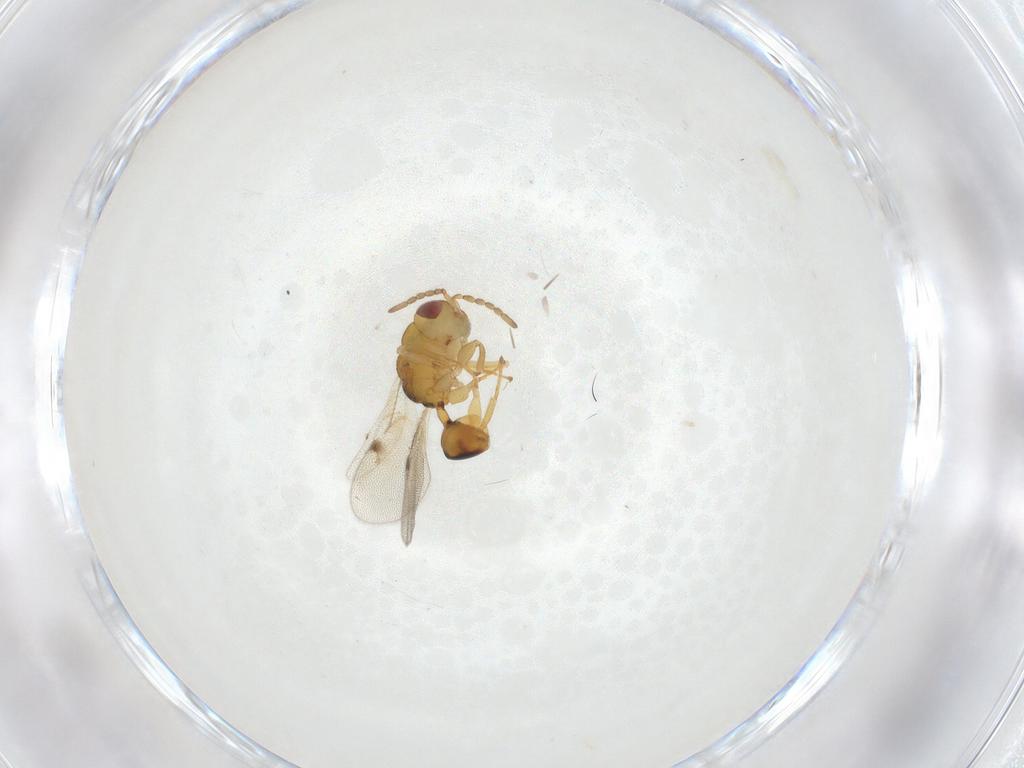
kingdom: Animalia
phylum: Arthropoda
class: Insecta
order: Hymenoptera
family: Eurytomidae
